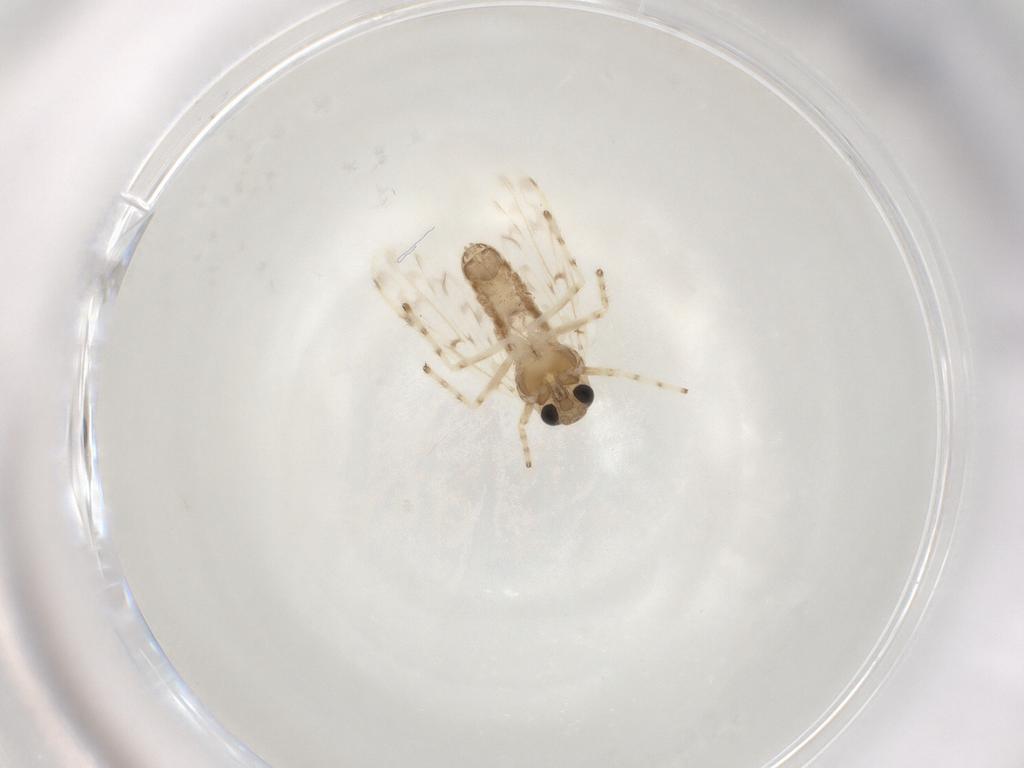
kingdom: Animalia
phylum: Arthropoda
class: Insecta
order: Diptera
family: Chironomidae
